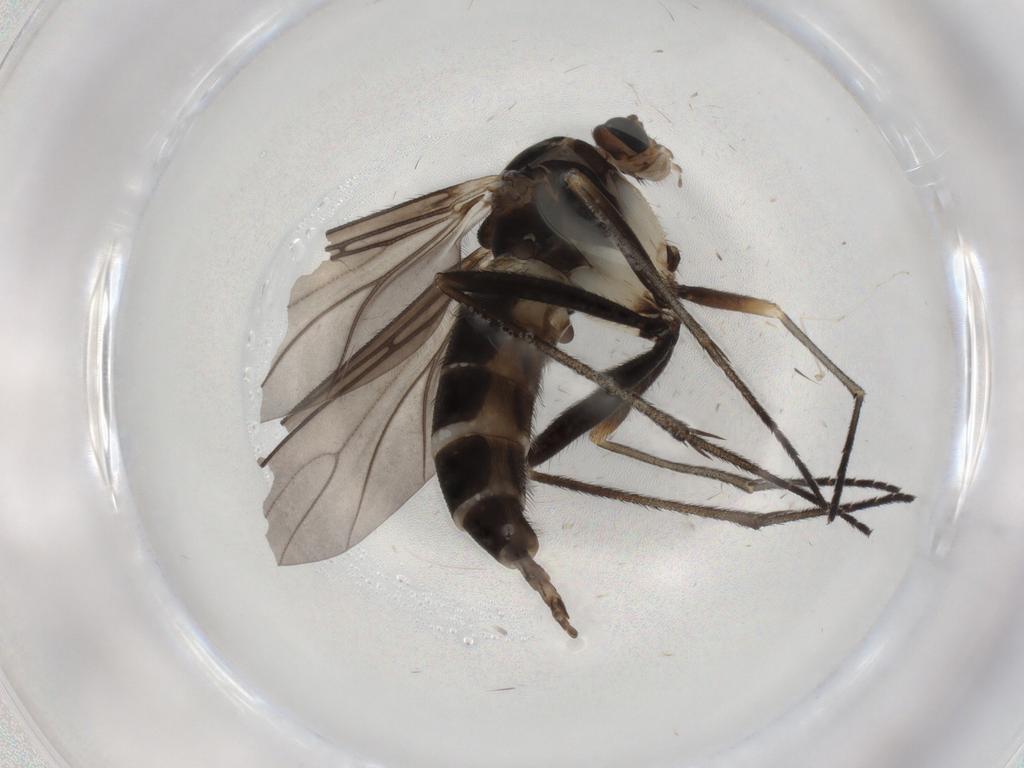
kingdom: Animalia
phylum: Arthropoda
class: Insecta
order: Diptera
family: Sciaridae
